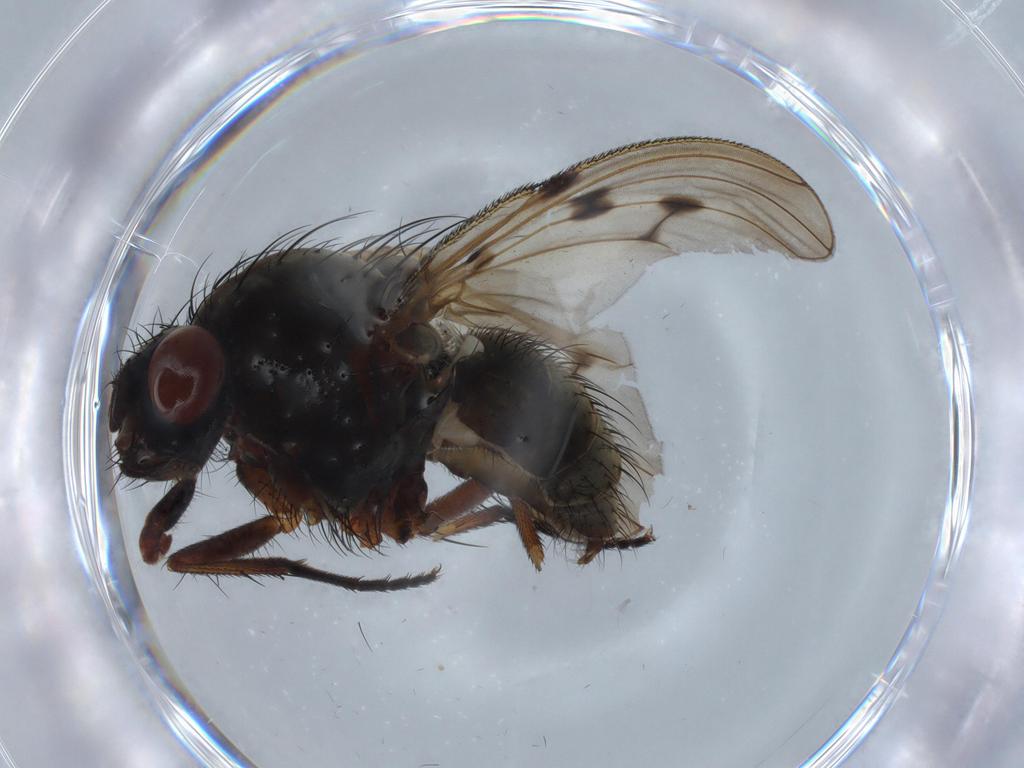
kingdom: Animalia
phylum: Arthropoda
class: Insecta
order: Diptera
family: Anthomyiidae
